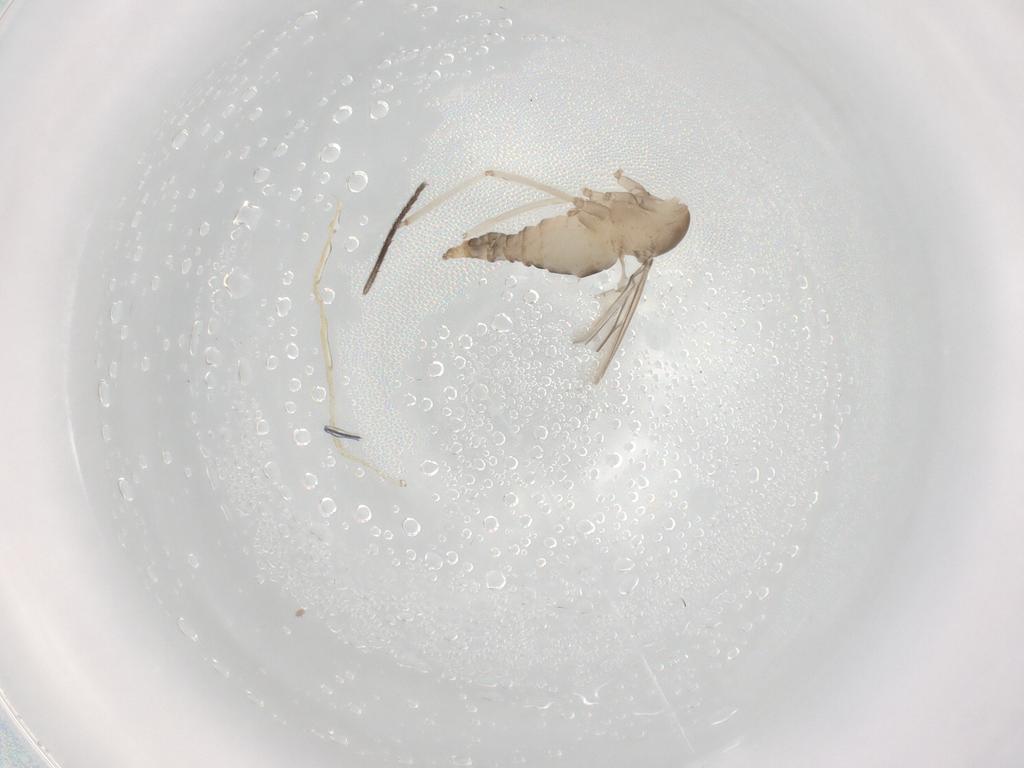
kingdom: Animalia
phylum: Arthropoda
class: Insecta
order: Diptera
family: Cecidomyiidae
